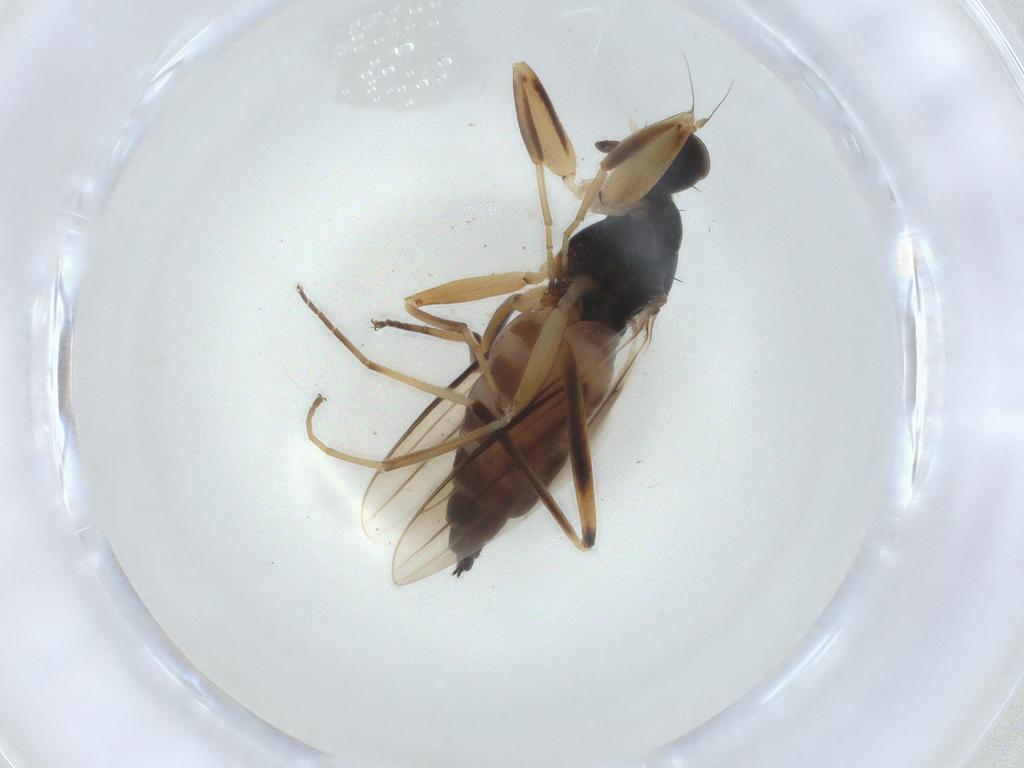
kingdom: Animalia
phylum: Arthropoda
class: Insecta
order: Diptera
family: Hybotidae
